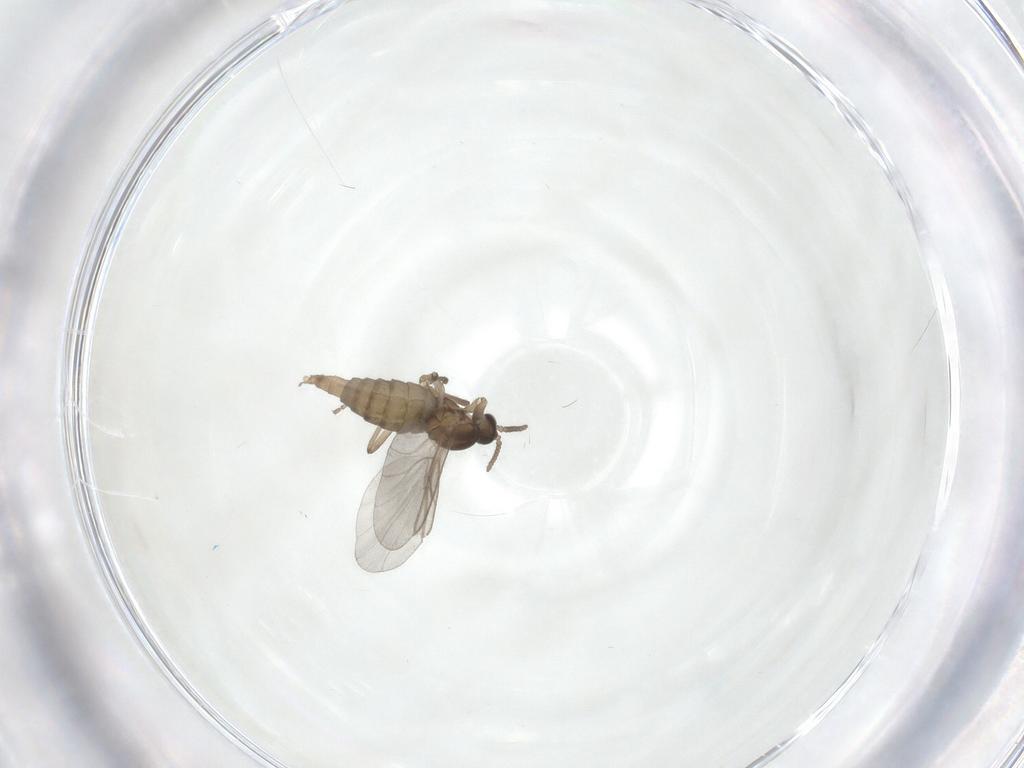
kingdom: Animalia
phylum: Arthropoda
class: Insecta
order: Diptera
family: Cecidomyiidae
